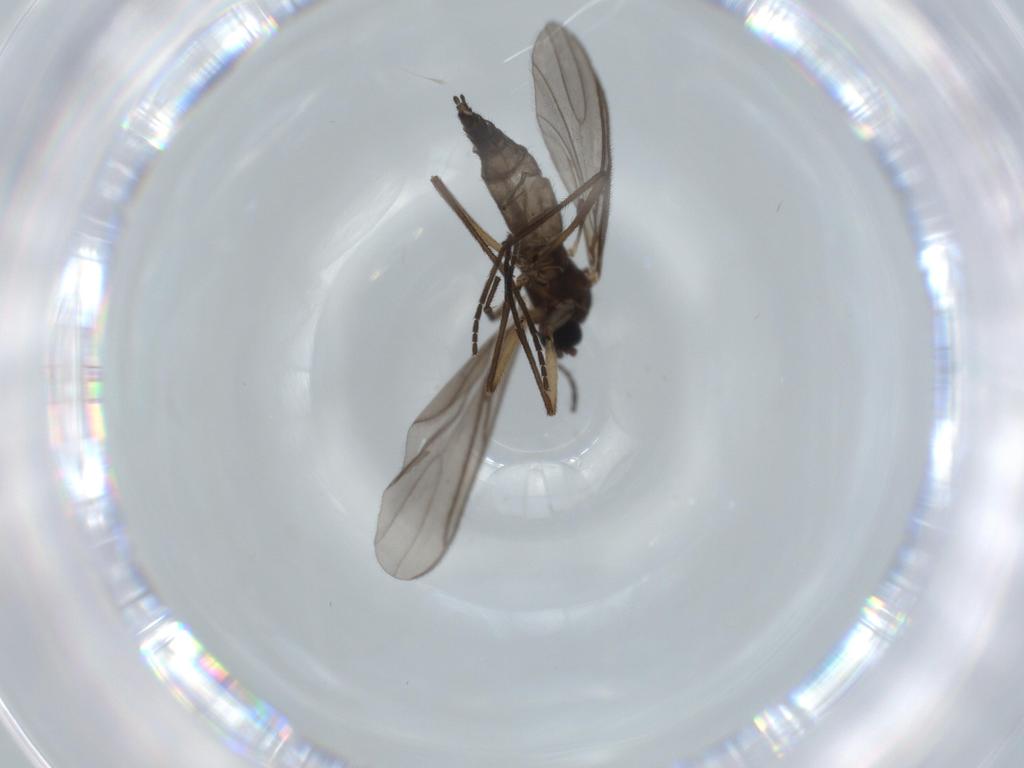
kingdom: Animalia
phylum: Arthropoda
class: Insecta
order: Diptera
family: Sciaridae
